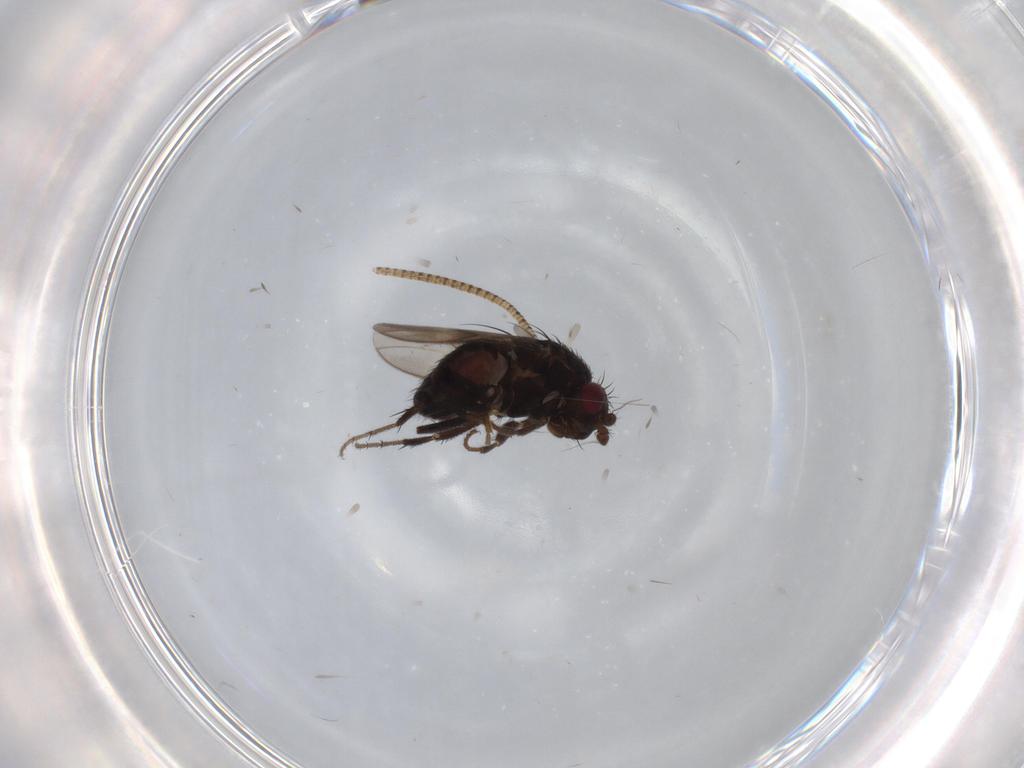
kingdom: Animalia
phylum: Arthropoda
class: Insecta
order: Diptera
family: Sphaeroceridae
